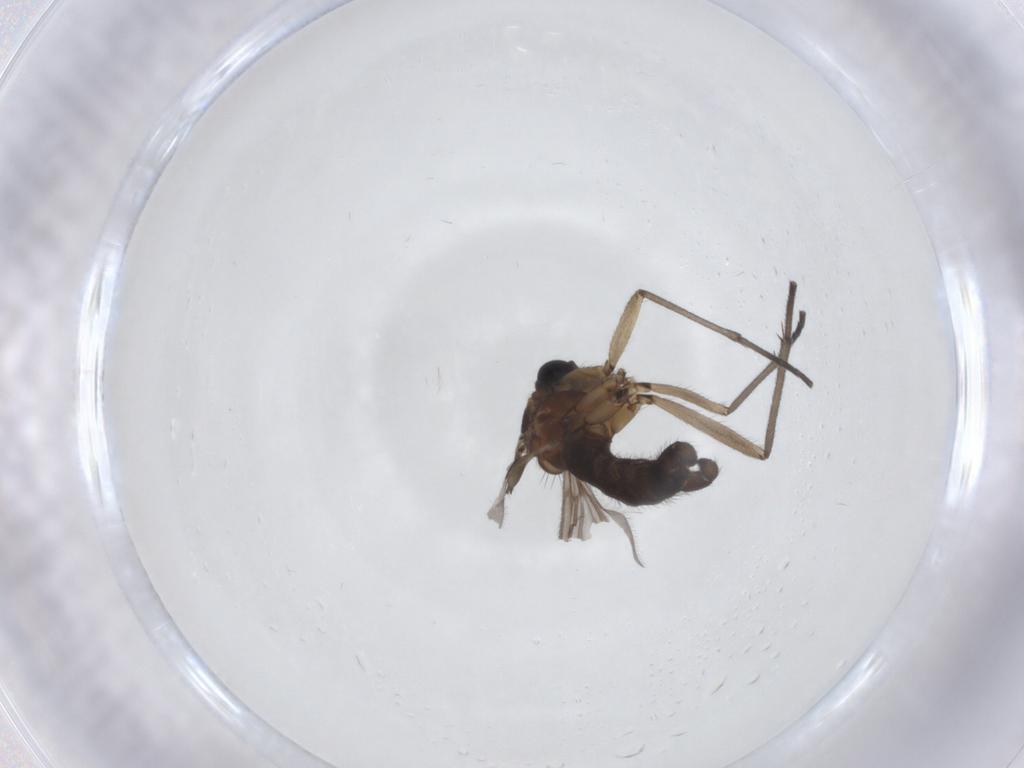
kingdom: Animalia
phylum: Arthropoda
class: Insecta
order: Diptera
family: Sciaridae
